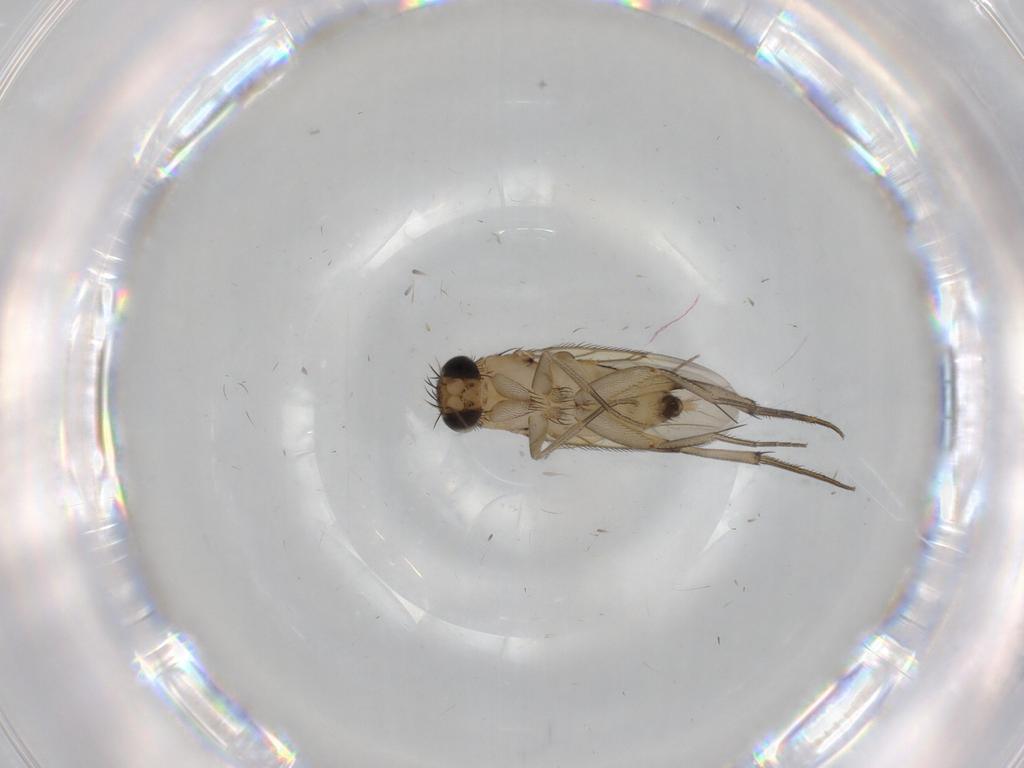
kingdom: Animalia
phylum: Arthropoda
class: Insecta
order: Diptera
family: Phoridae
